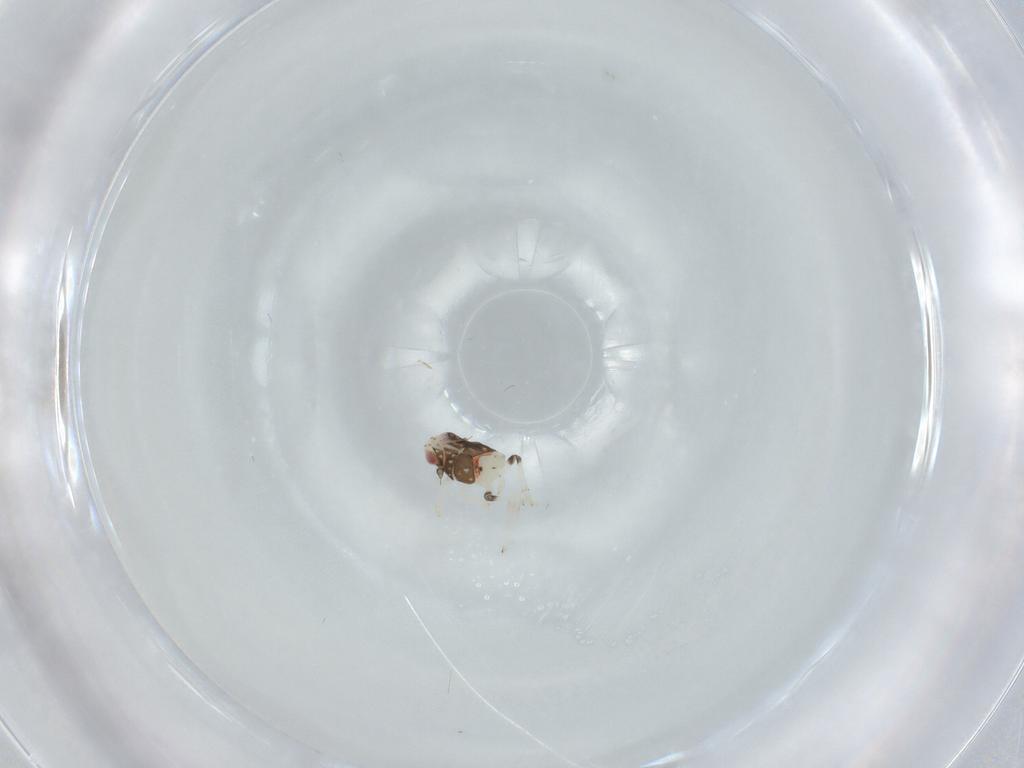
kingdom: Animalia
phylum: Arthropoda
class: Insecta
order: Hemiptera
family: Nogodinidae
